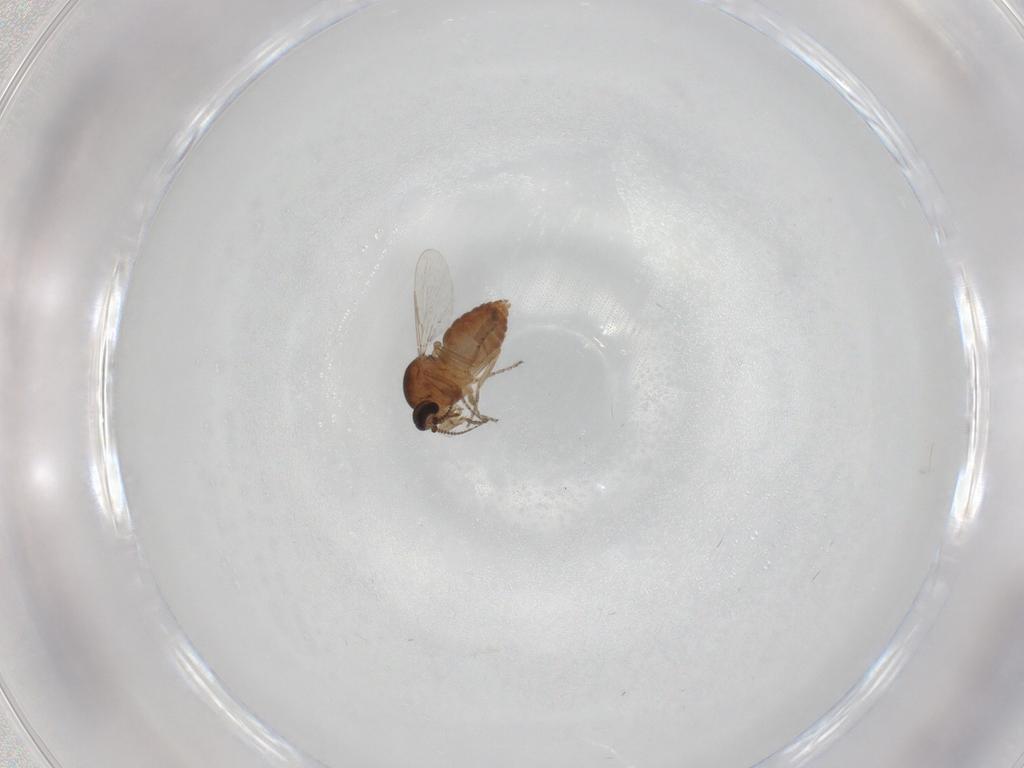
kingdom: Animalia
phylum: Arthropoda
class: Insecta
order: Diptera
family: Ceratopogonidae
